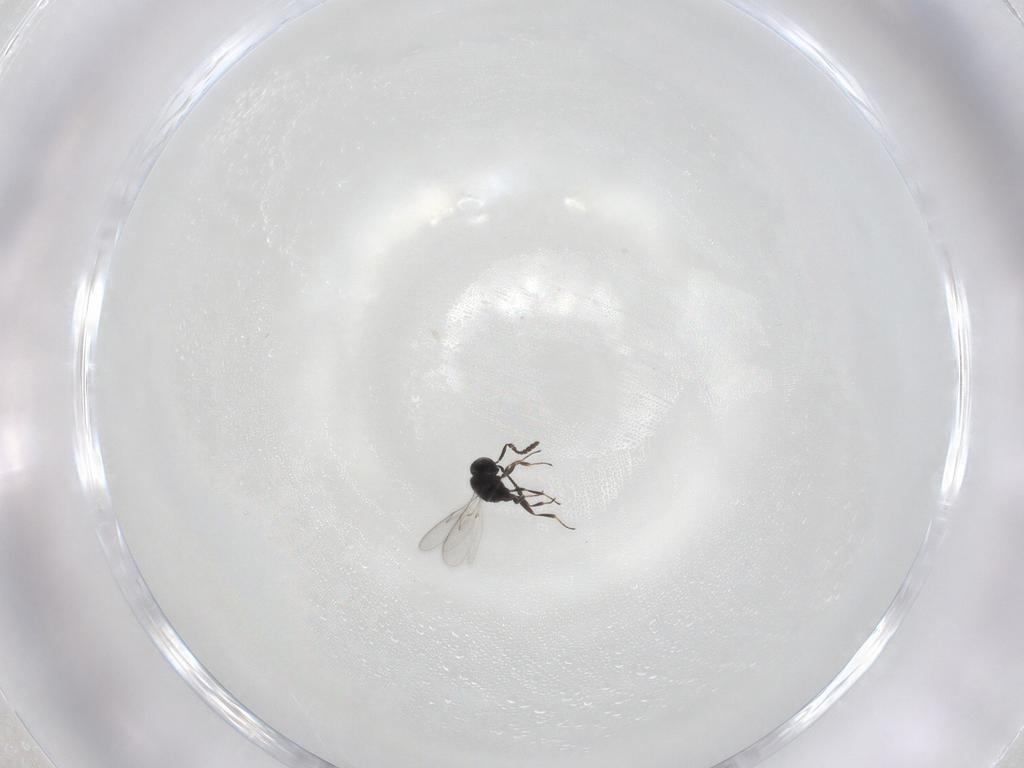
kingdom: Animalia
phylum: Arthropoda
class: Insecta
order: Hymenoptera
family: Scelionidae
